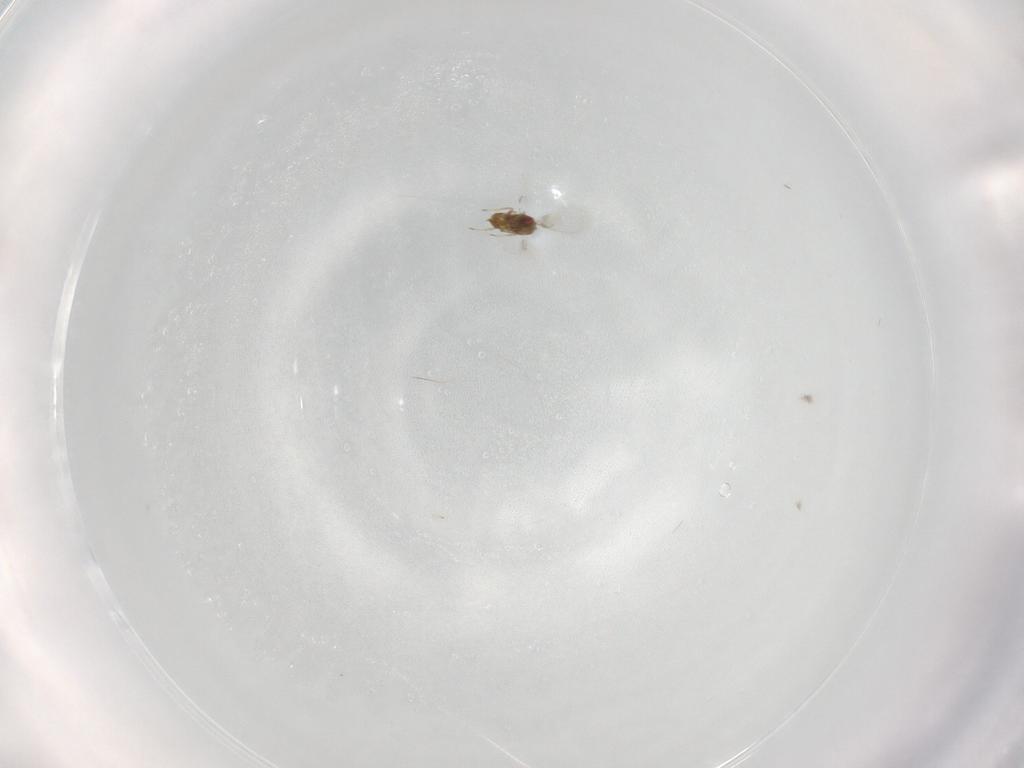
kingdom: Animalia
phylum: Arthropoda
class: Insecta
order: Hymenoptera
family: Trichogrammatidae
